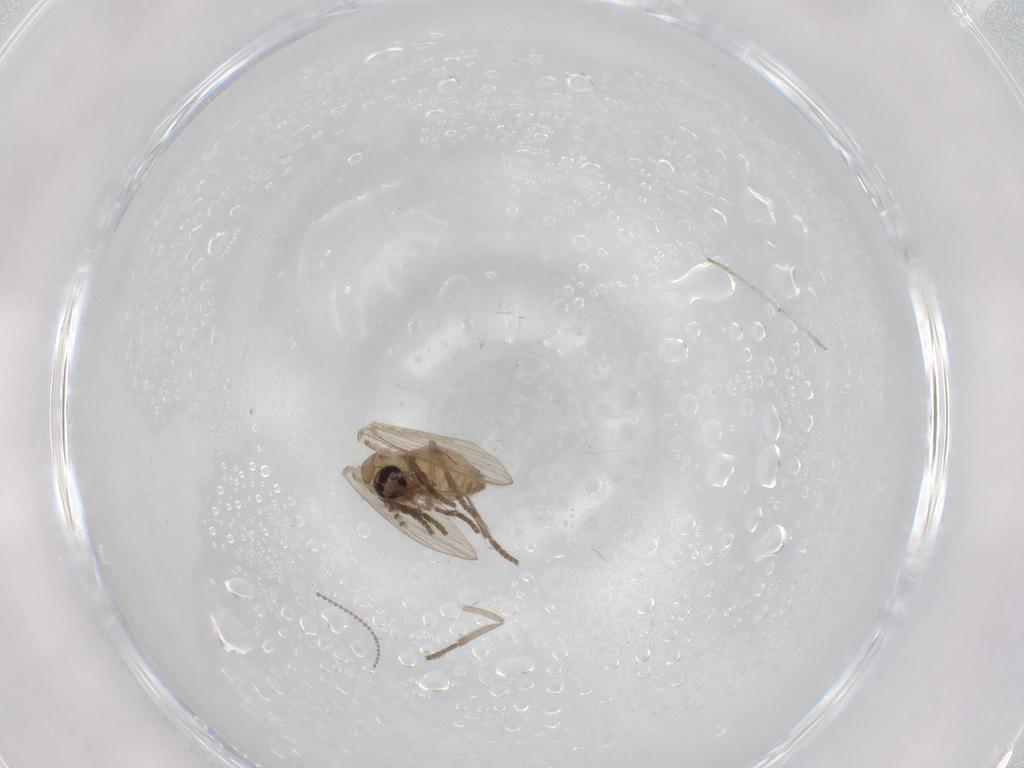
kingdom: Animalia
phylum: Arthropoda
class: Insecta
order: Diptera
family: Psychodidae
